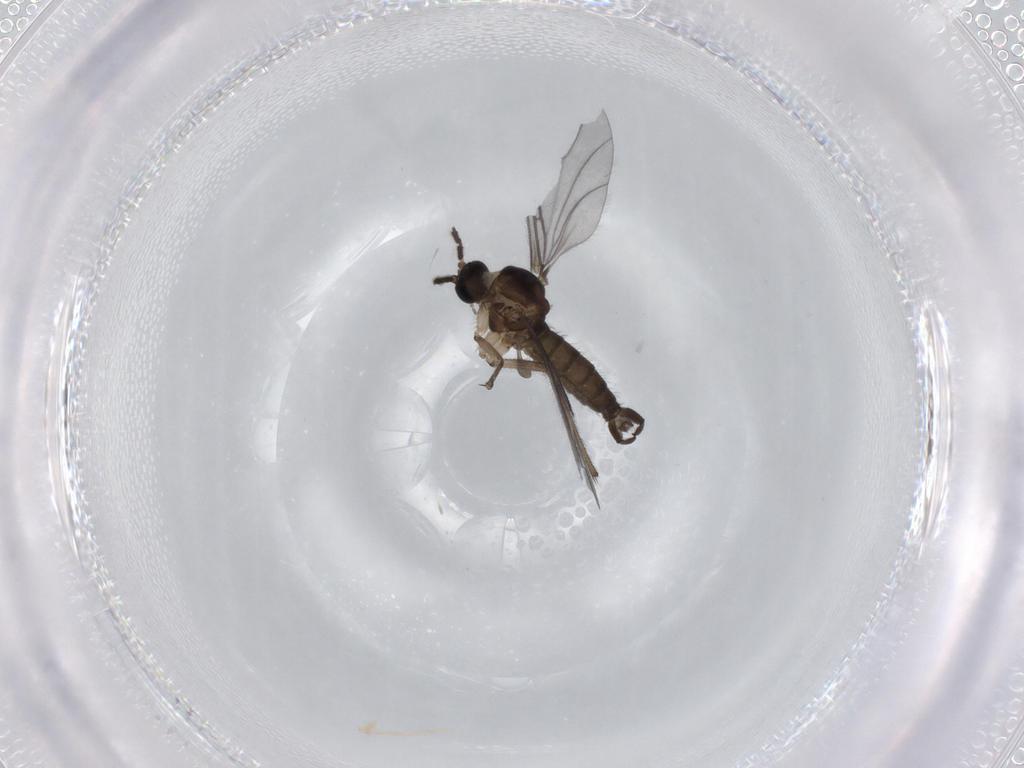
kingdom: Animalia
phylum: Arthropoda
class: Insecta
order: Diptera
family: Sciaridae
